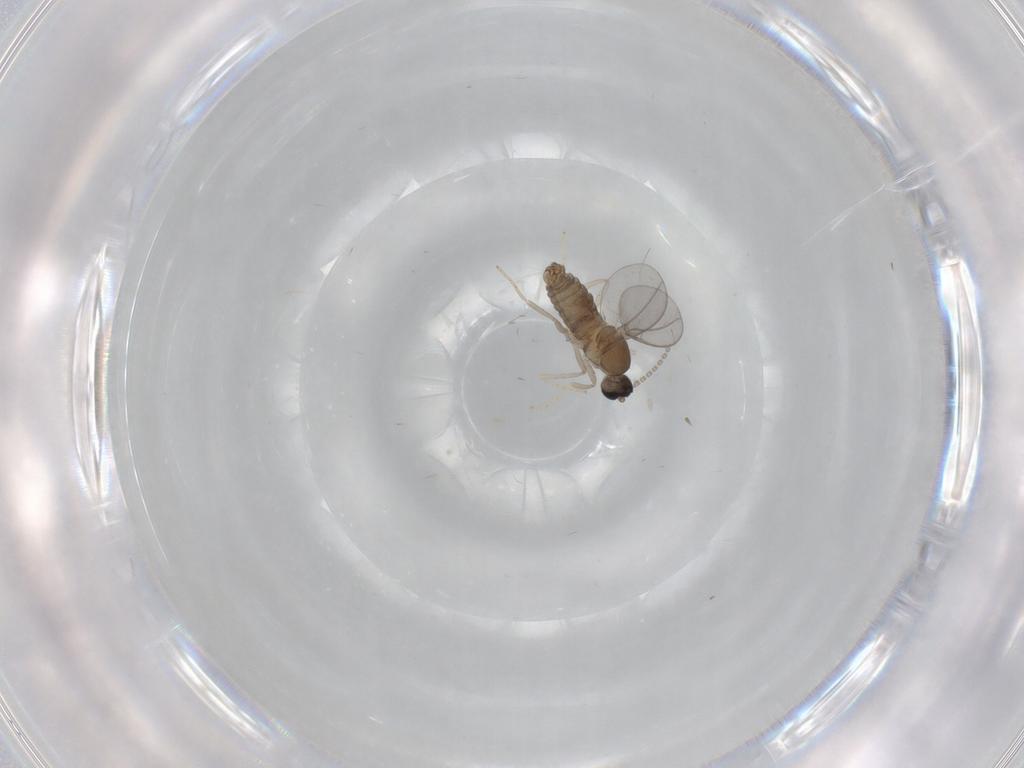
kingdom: Animalia
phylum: Arthropoda
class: Insecta
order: Diptera
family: Cecidomyiidae
